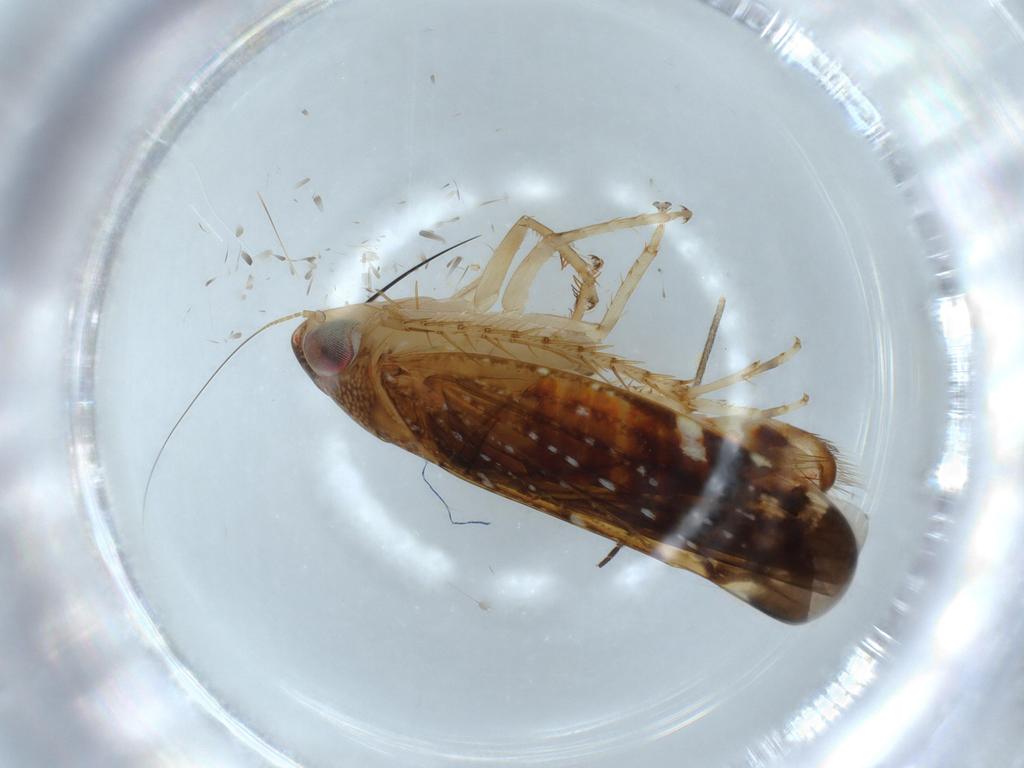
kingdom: Animalia
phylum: Arthropoda
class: Insecta
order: Hemiptera
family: Cicadellidae
